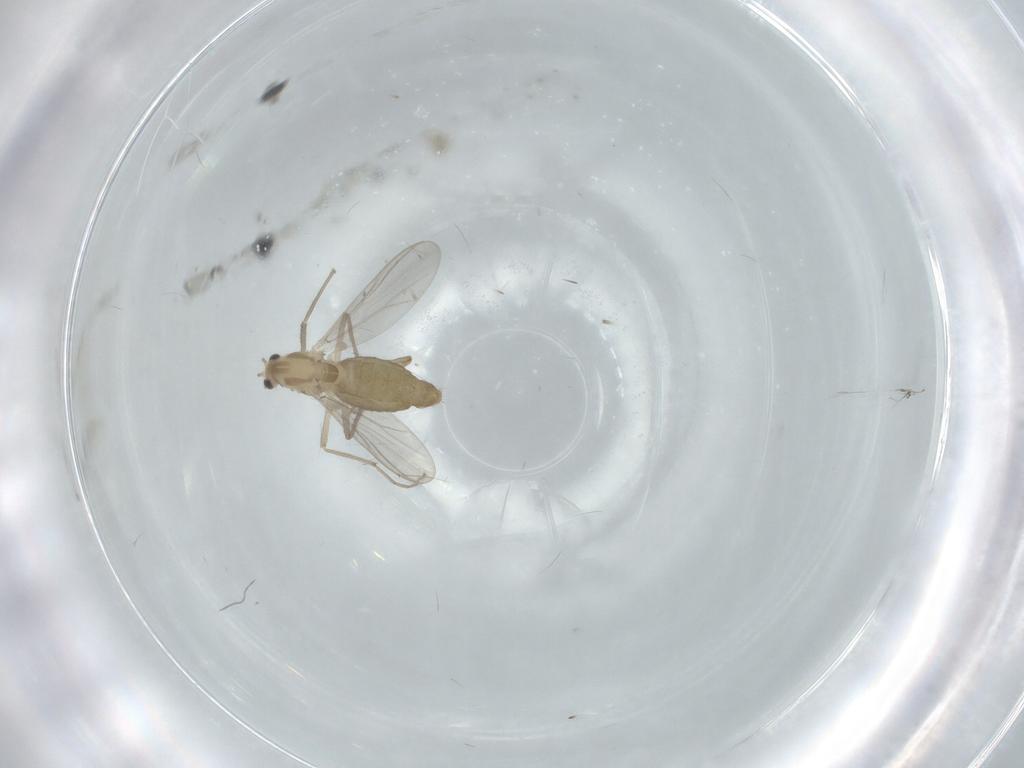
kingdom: Animalia
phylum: Arthropoda
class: Insecta
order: Diptera
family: Chironomidae
